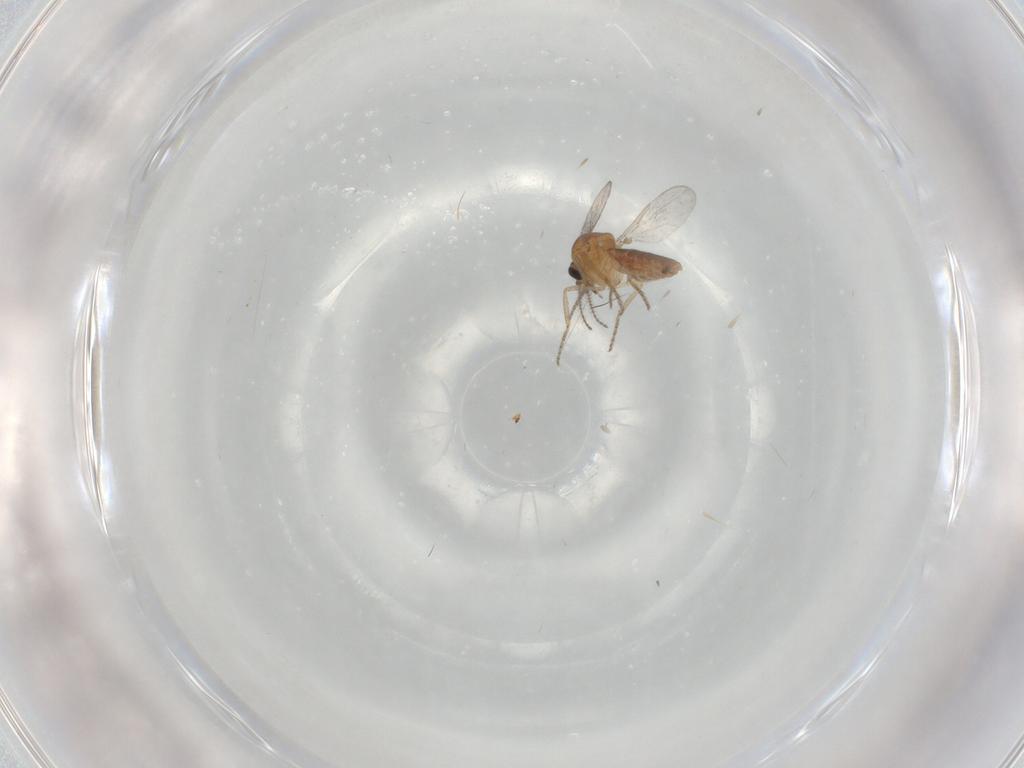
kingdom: Animalia
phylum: Arthropoda
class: Insecta
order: Diptera
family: Ceratopogonidae
